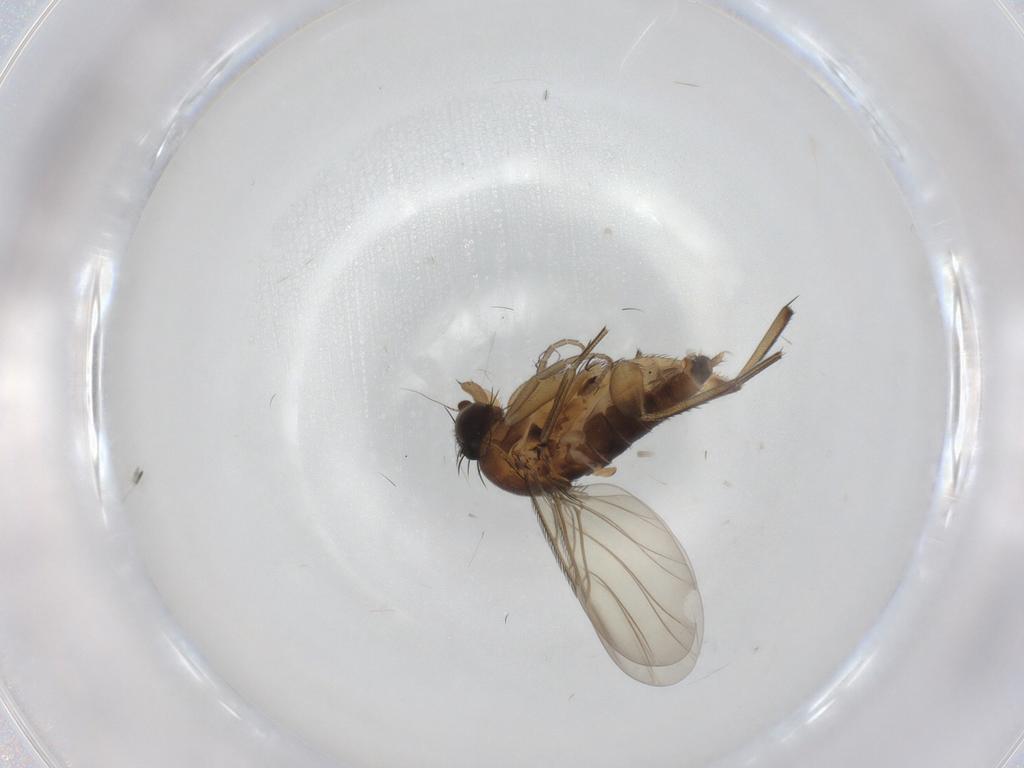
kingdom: Animalia
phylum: Arthropoda
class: Insecta
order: Diptera
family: Phoridae
